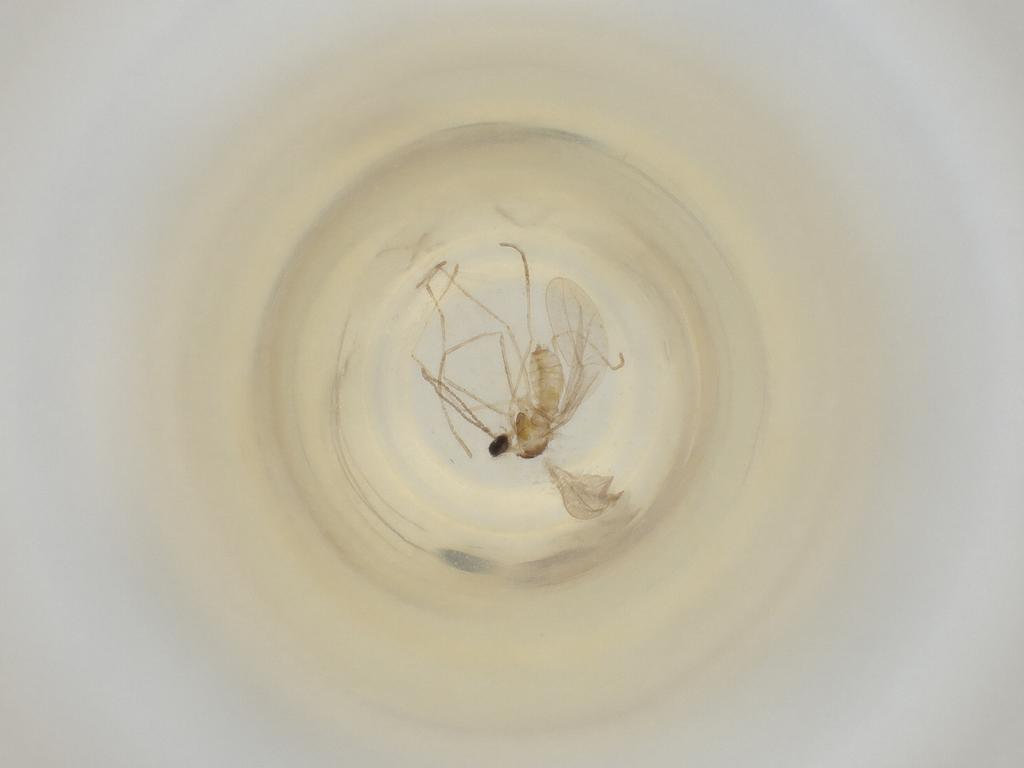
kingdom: Animalia
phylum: Arthropoda
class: Insecta
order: Diptera
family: Cecidomyiidae
